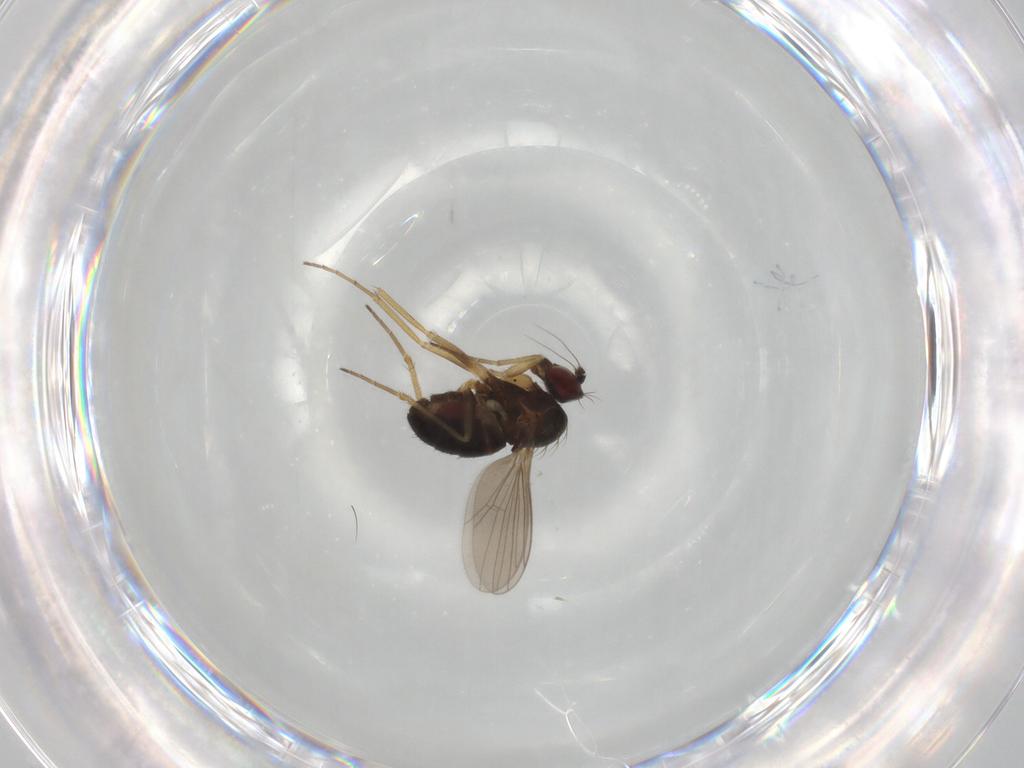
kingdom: Animalia
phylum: Arthropoda
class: Insecta
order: Diptera
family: Dolichopodidae
